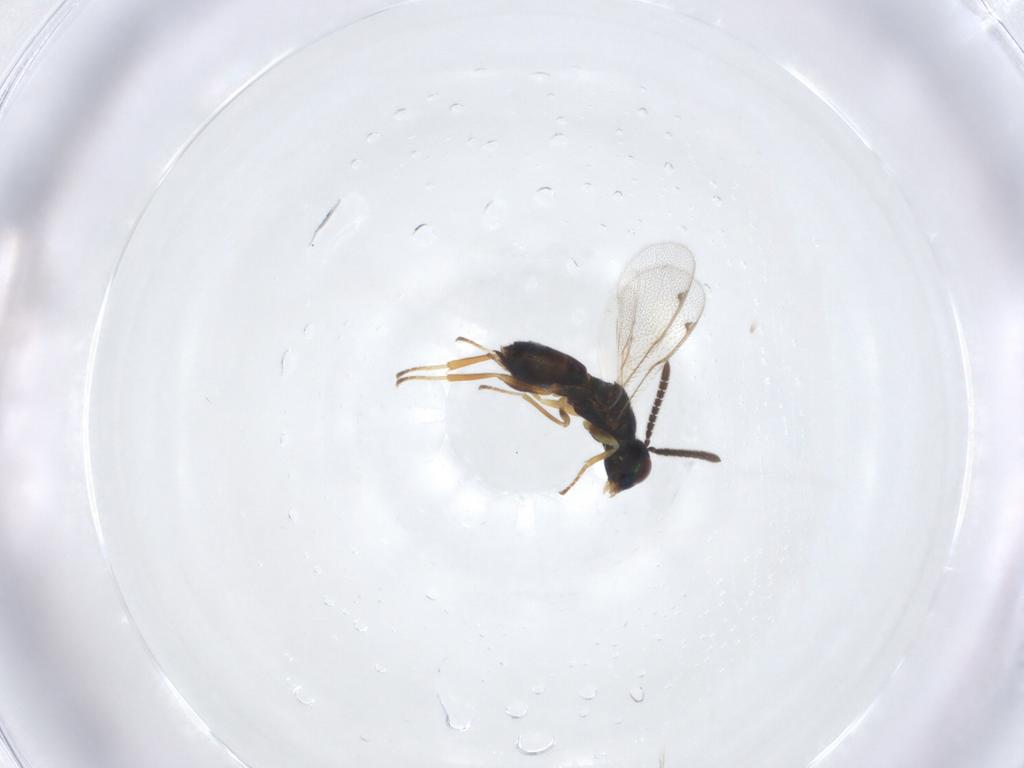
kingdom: Animalia
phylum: Arthropoda
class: Insecta
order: Hymenoptera
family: Torymidae
